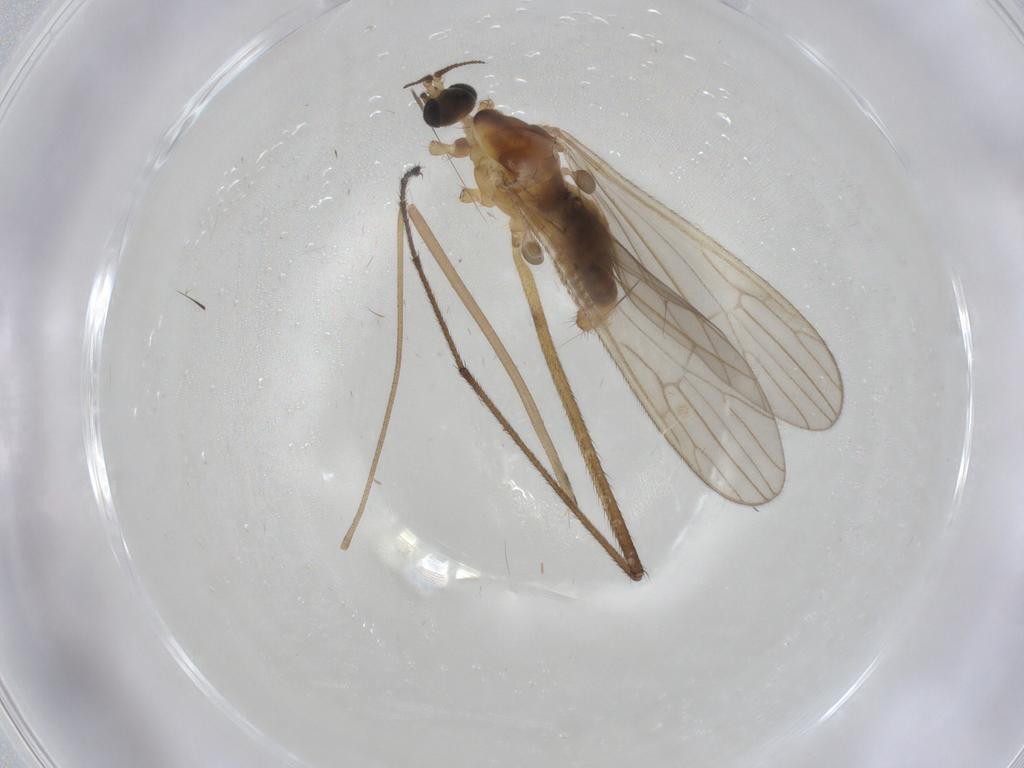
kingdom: Animalia
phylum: Arthropoda
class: Insecta
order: Diptera
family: Limoniidae
